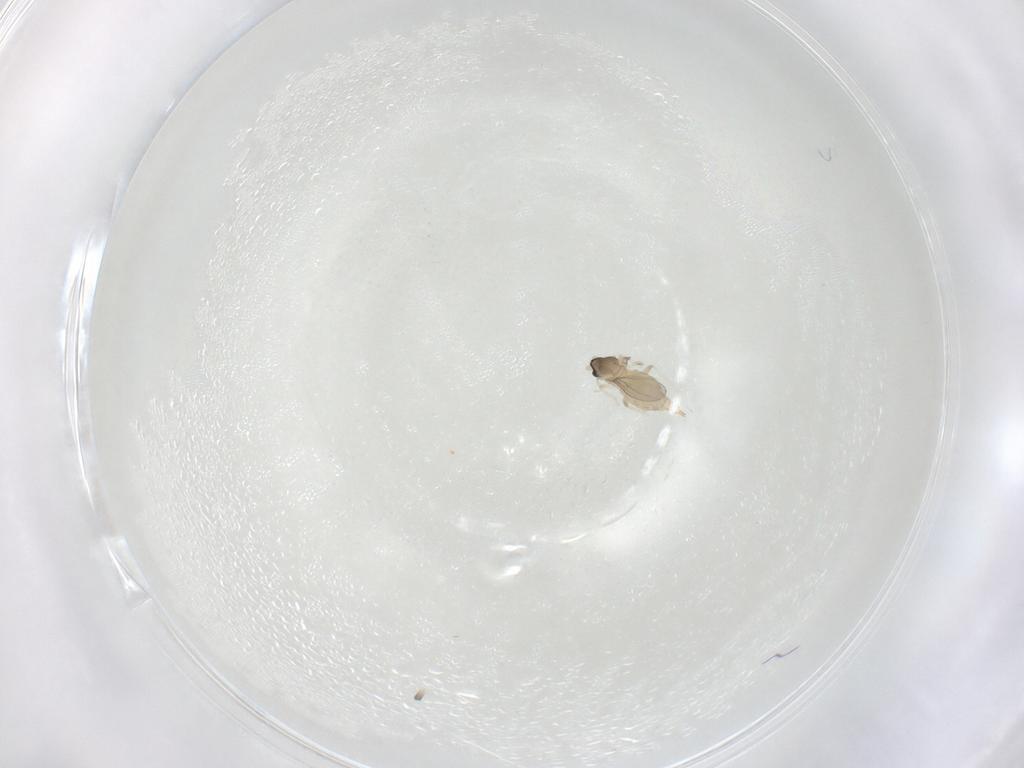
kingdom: Animalia
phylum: Arthropoda
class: Insecta
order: Diptera
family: Cecidomyiidae
